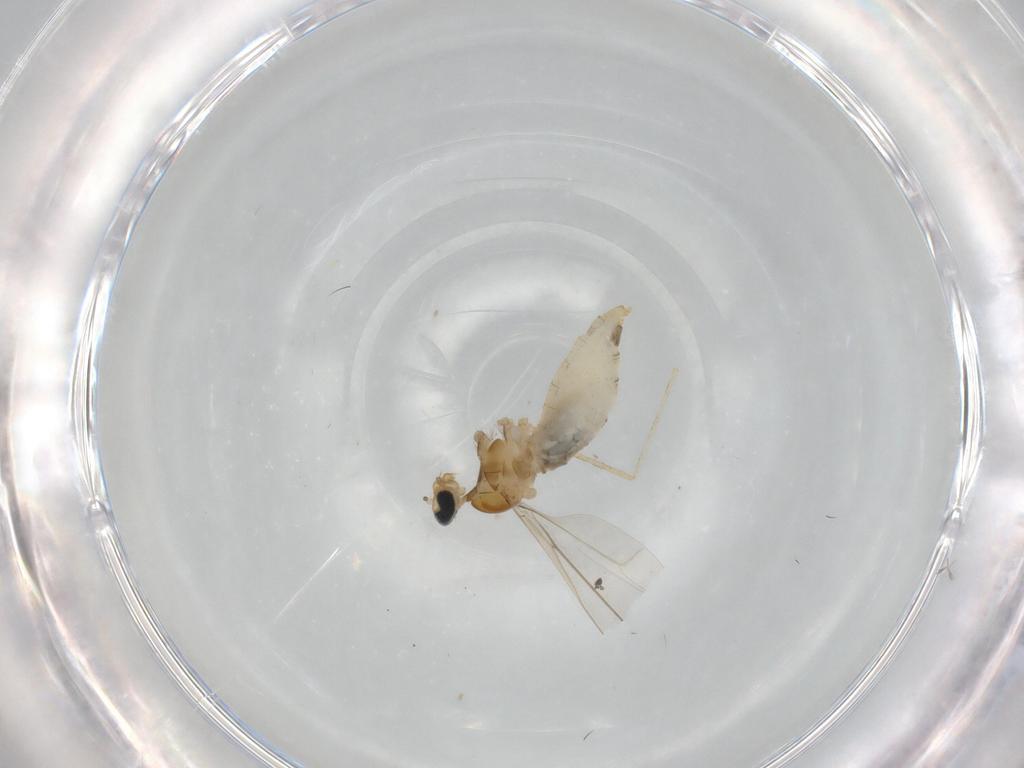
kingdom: Animalia
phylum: Arthropoda
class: Insecta
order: Diptera
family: Cecidomyiidae
